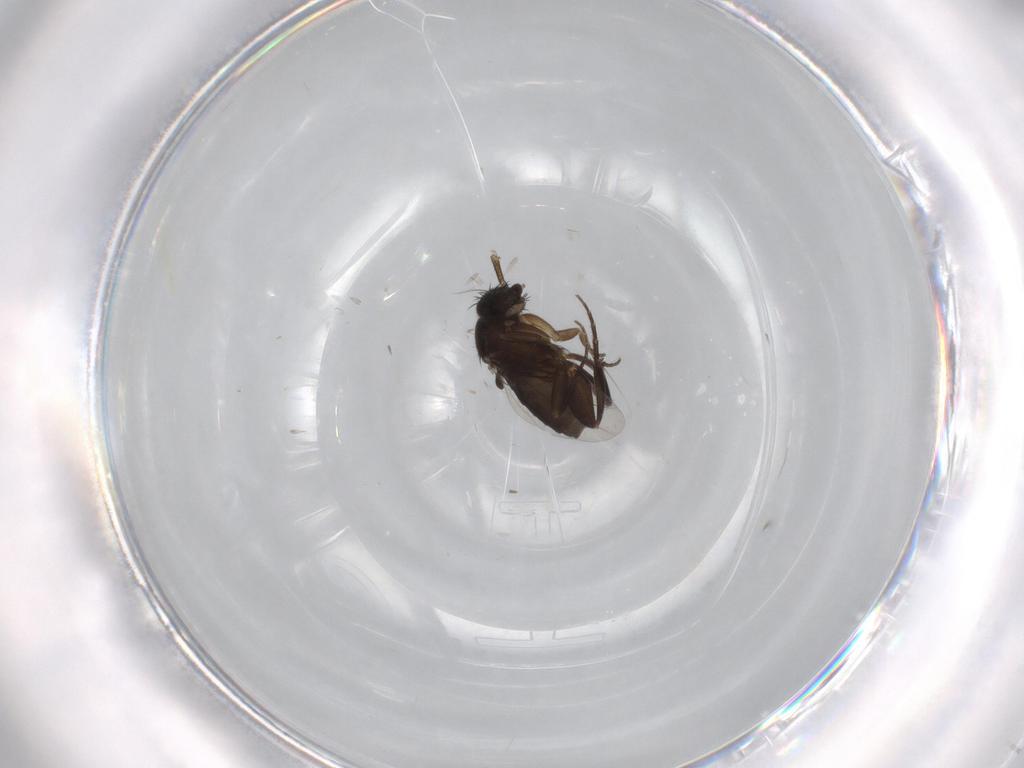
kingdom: Animalia
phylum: Arthropoda
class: Insecta
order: Diptera
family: Phoridae
